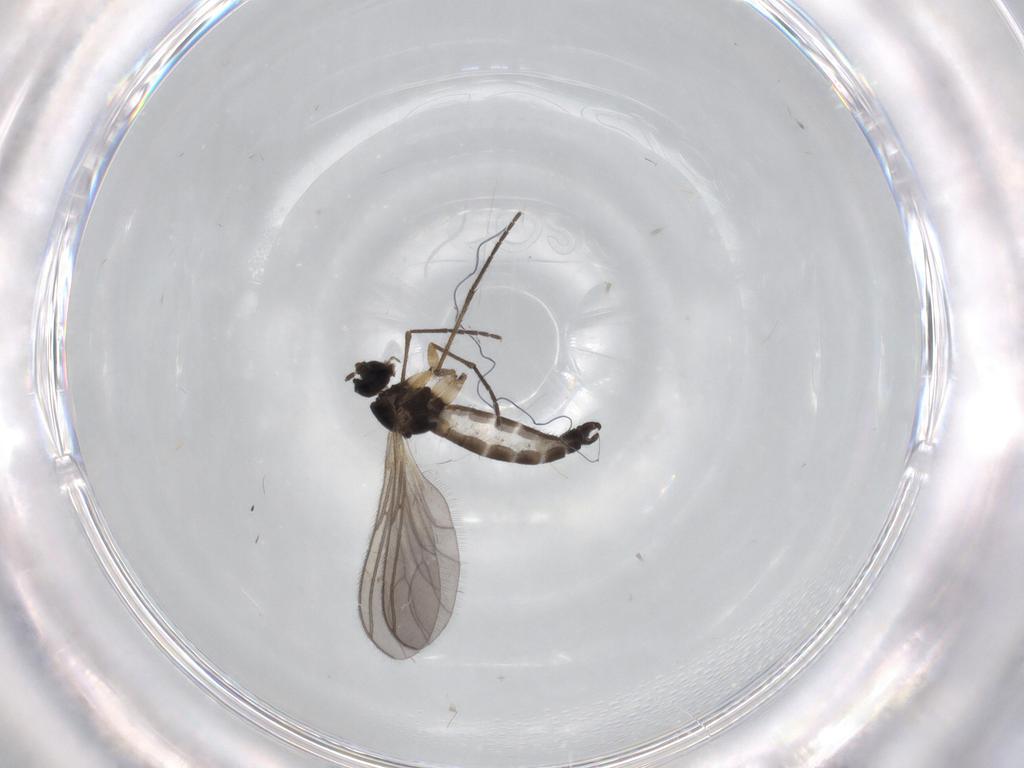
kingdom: Animalia
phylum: Arthropoda
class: Insecta
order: Diptera
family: Sciaridae
